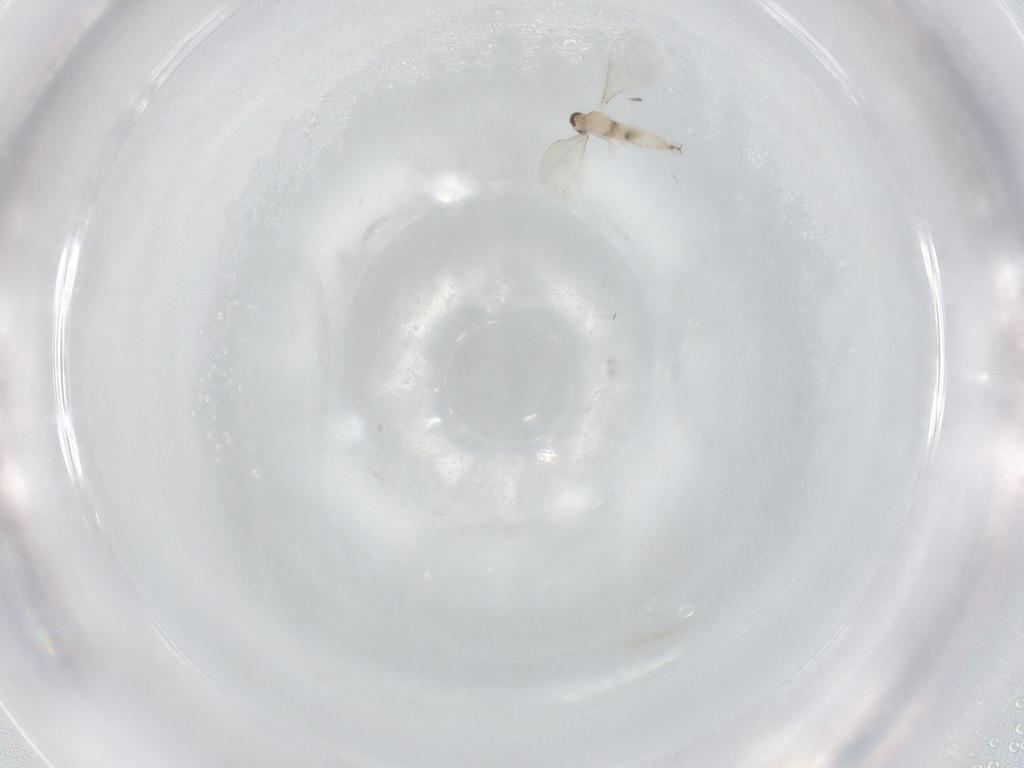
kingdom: Animalia
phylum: Arthropoda
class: Insecta
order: Diptera
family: Cecidomyiidae
